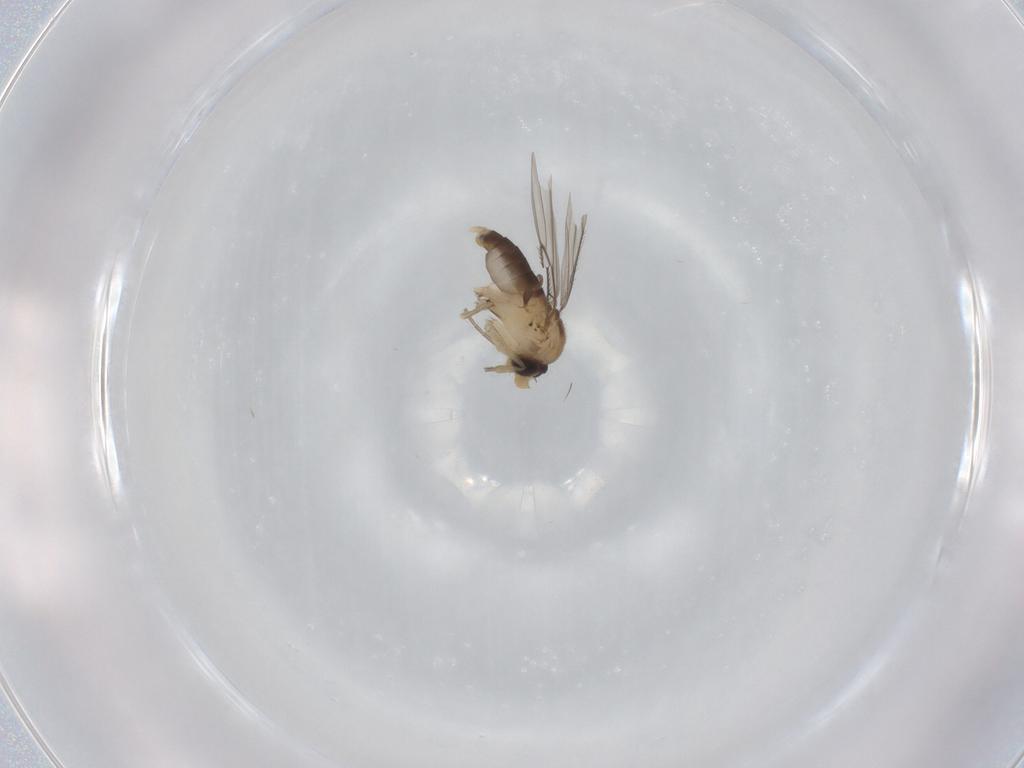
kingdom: Animalia
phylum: Arthropoda
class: Insecta
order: Diptera
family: Phoridae
